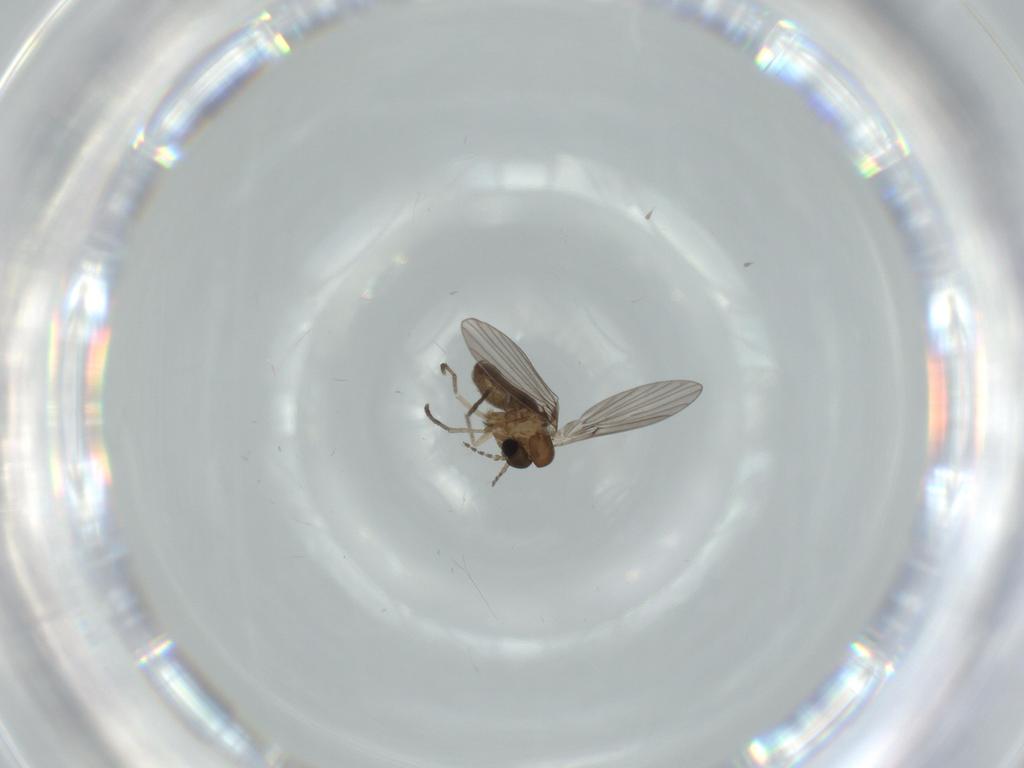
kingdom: Animalia
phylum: Arthropoda
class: Insecta
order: Diptera
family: Psychodidae
